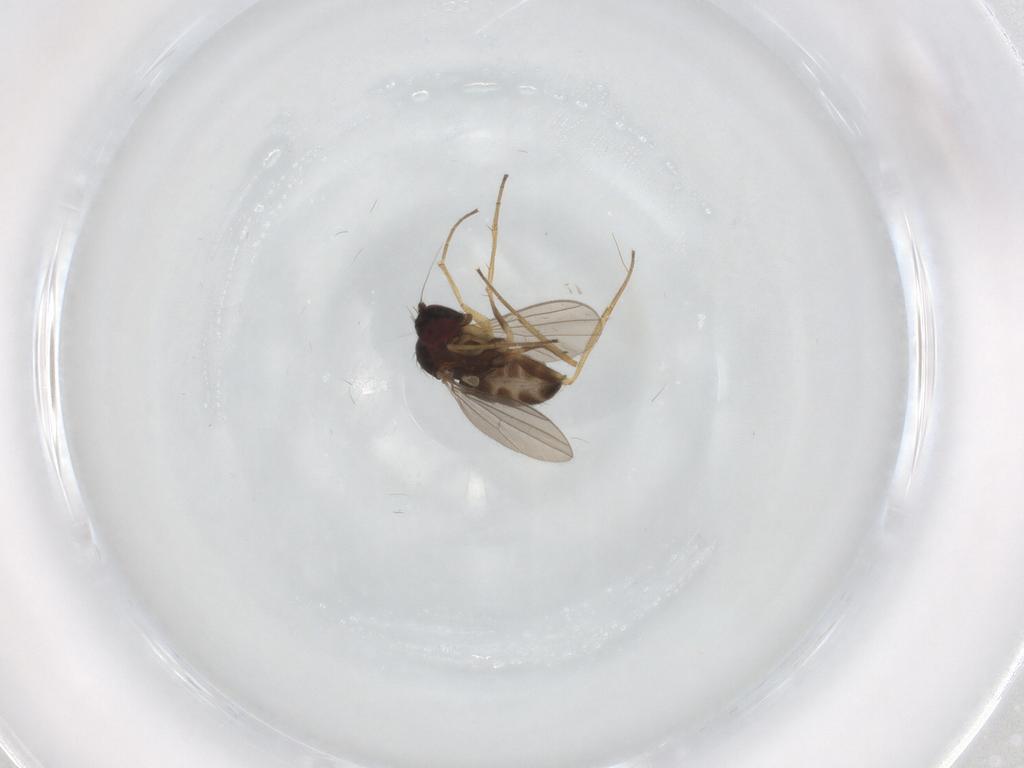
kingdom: Animalia
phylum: Arthropoda
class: Insecta
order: Diptera
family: Dolichopodidae
